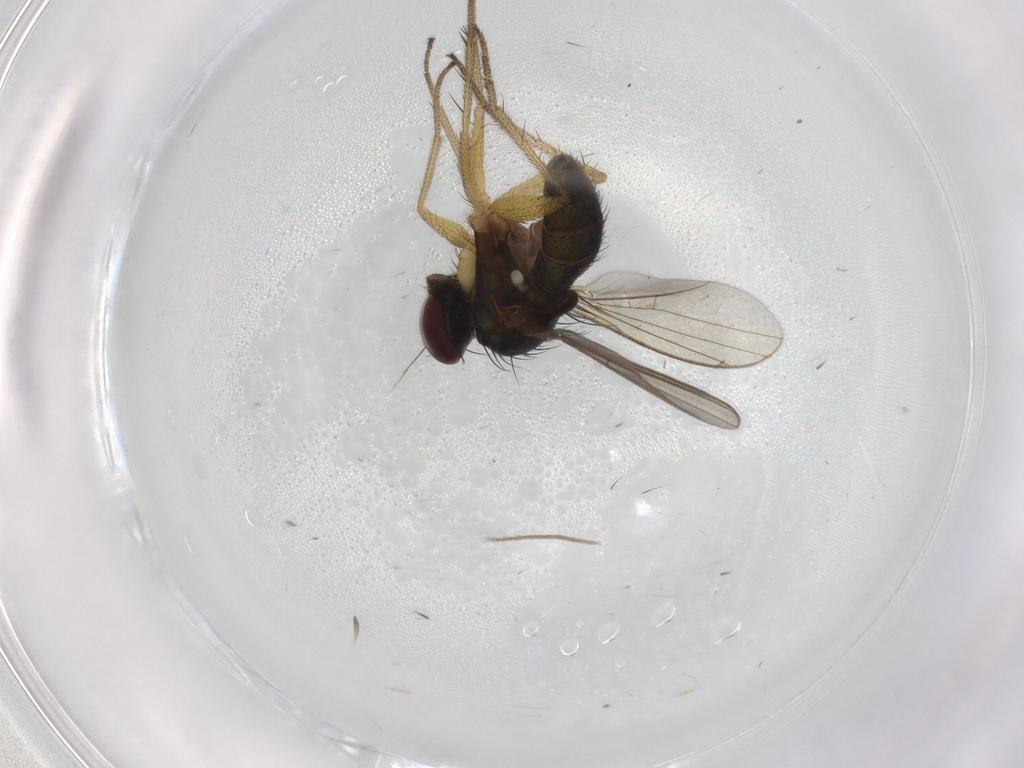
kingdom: Animalia
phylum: Arthropoda
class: Insecta
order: Diptera
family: Dolichopodidae
